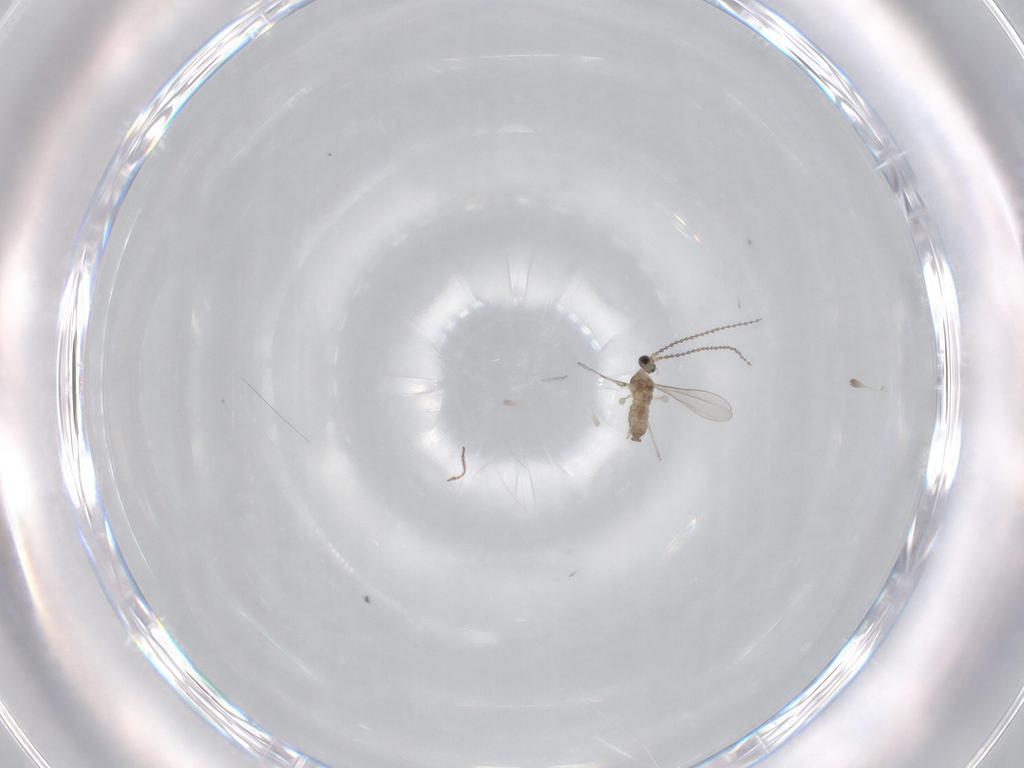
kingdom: Animalia
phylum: Arthropoda
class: Insecta
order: Diptera
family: Cecidomyiidae
